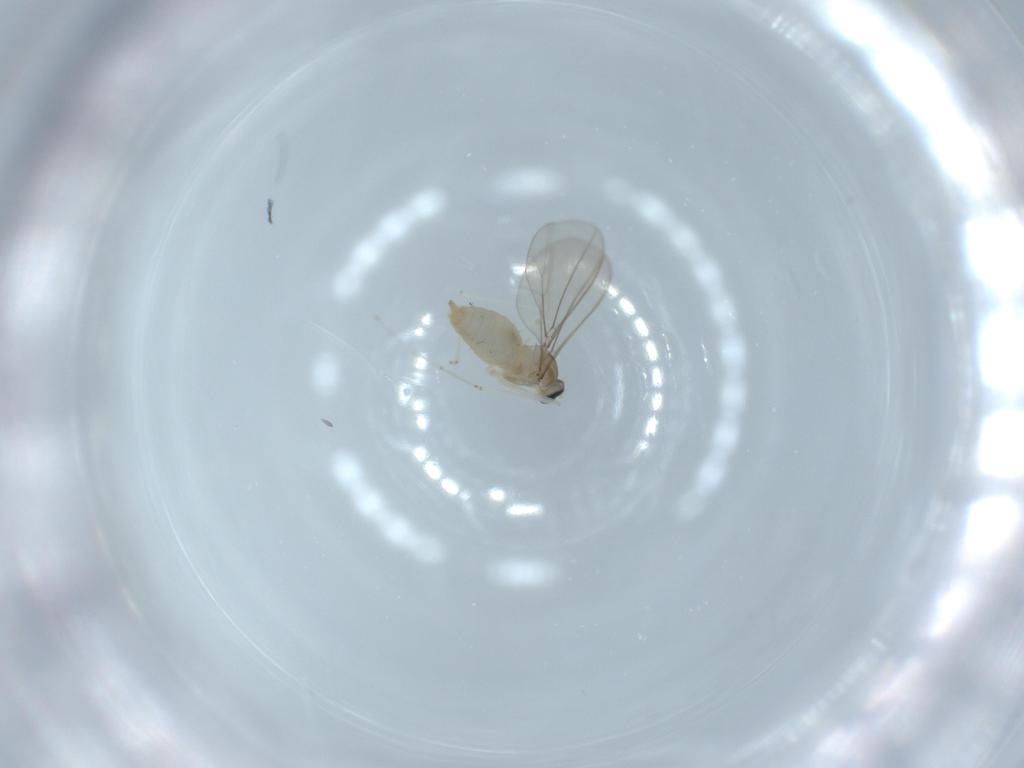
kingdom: Animalia
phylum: Arthropoda
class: Insecta
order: Diptera
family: Cecidomyiidae
